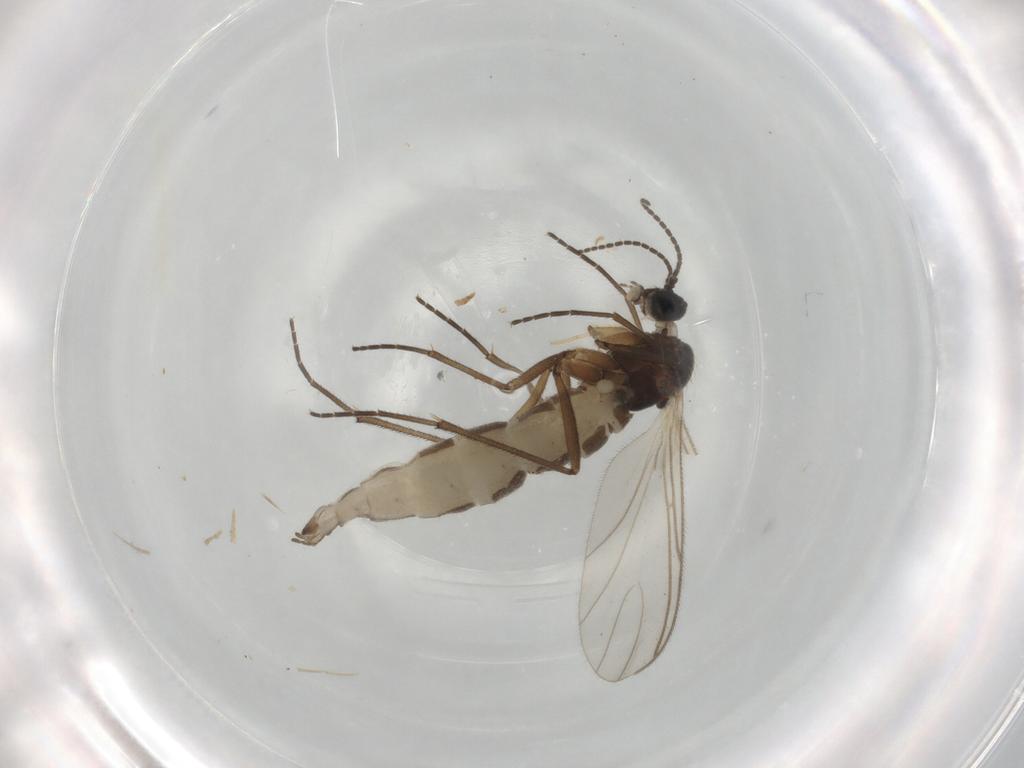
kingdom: Animalia
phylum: Arthropoda
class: Insecta
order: Diptera
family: Sciaridae
